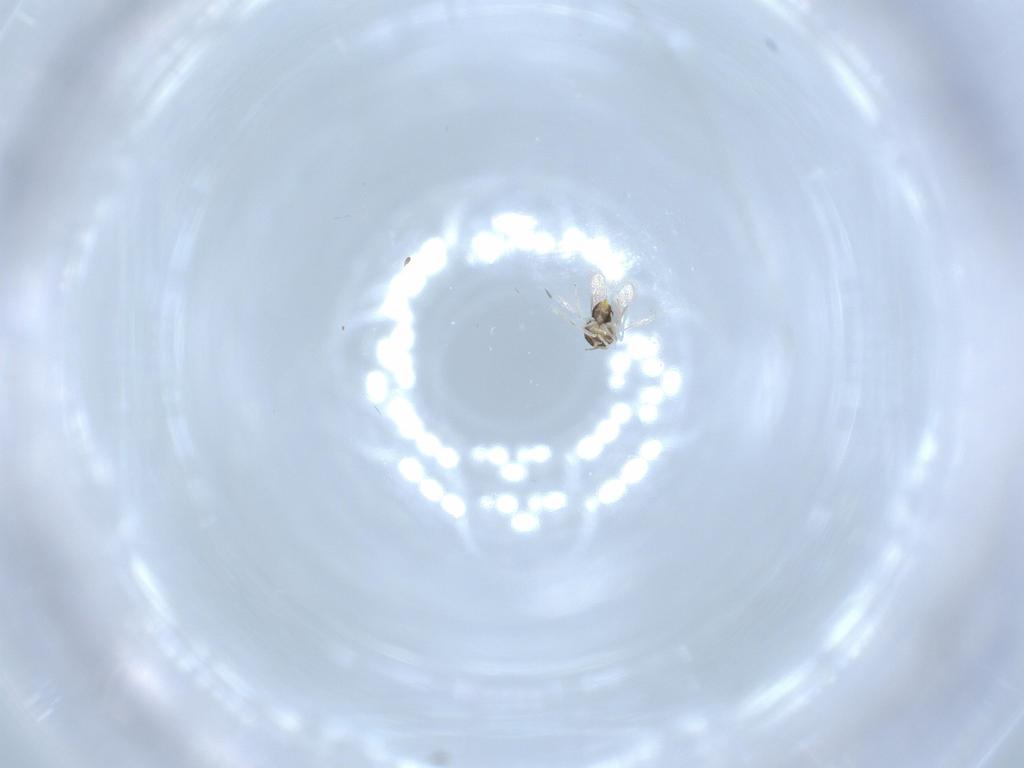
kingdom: Animalia
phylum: Arthropoda
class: Insecta
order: Hymenoptera
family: Aphelinidae
